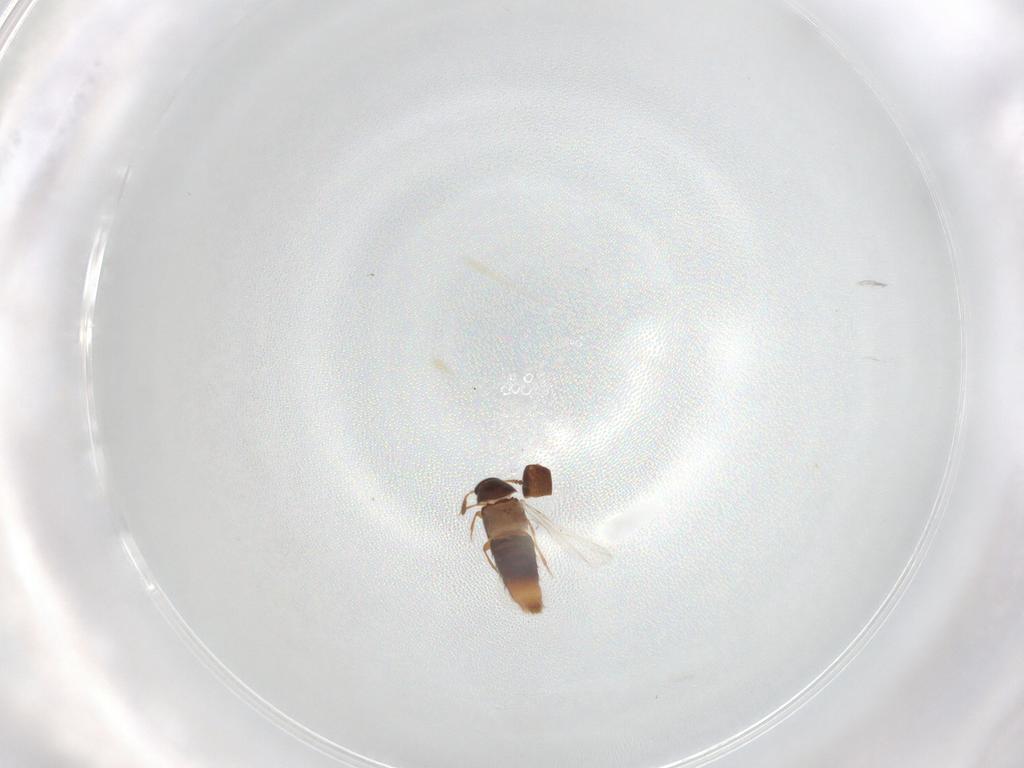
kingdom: Animalia
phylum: Arthropoda
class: Insecta
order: Coleoptera
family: Staphylinidae
